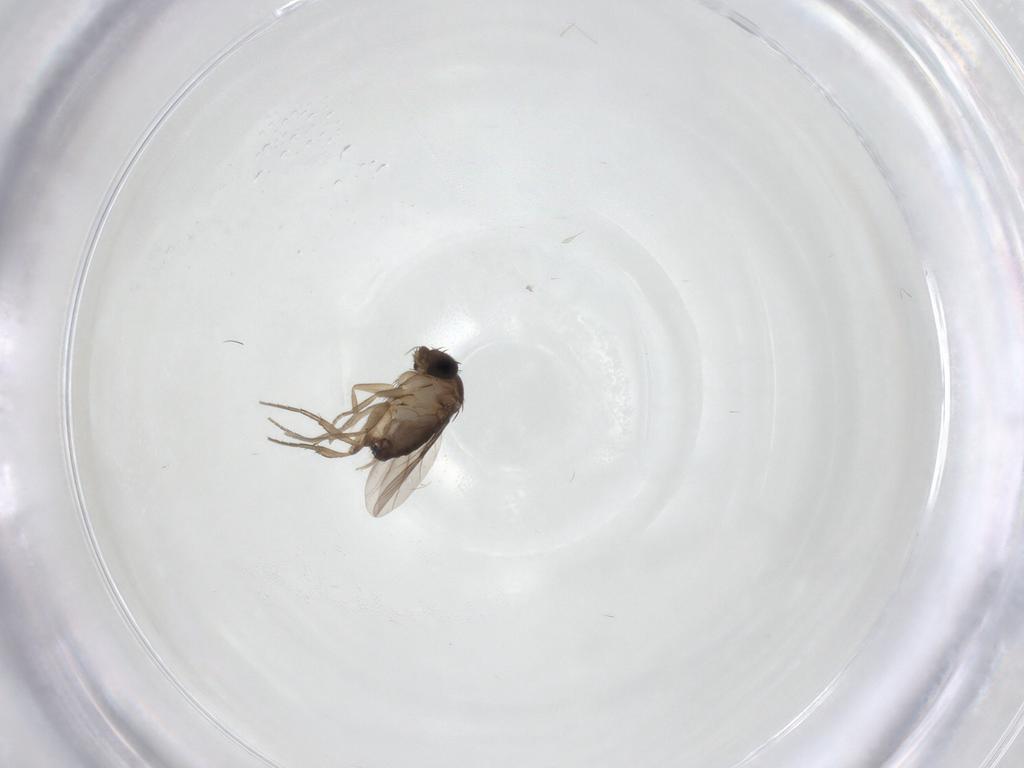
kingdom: Animalia
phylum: Arthropoda
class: Insecta
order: Diptera
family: Phoridae
